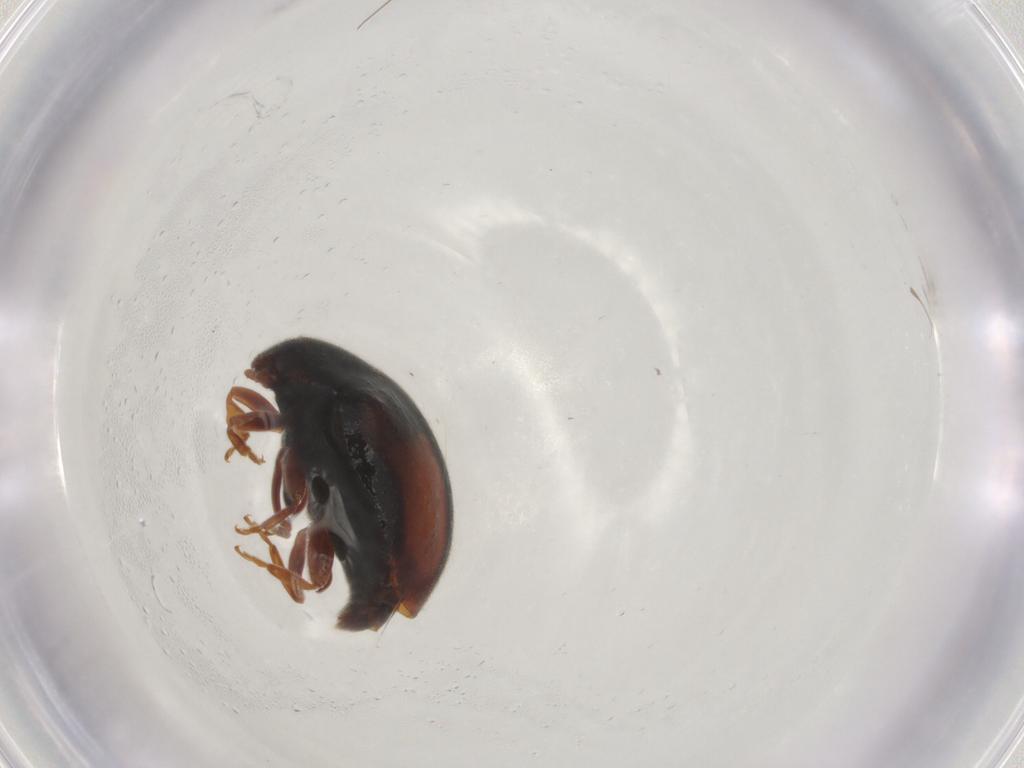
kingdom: Animalia
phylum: Arthropoda
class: Insecta
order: Coleoptera
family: Coccinellidae
